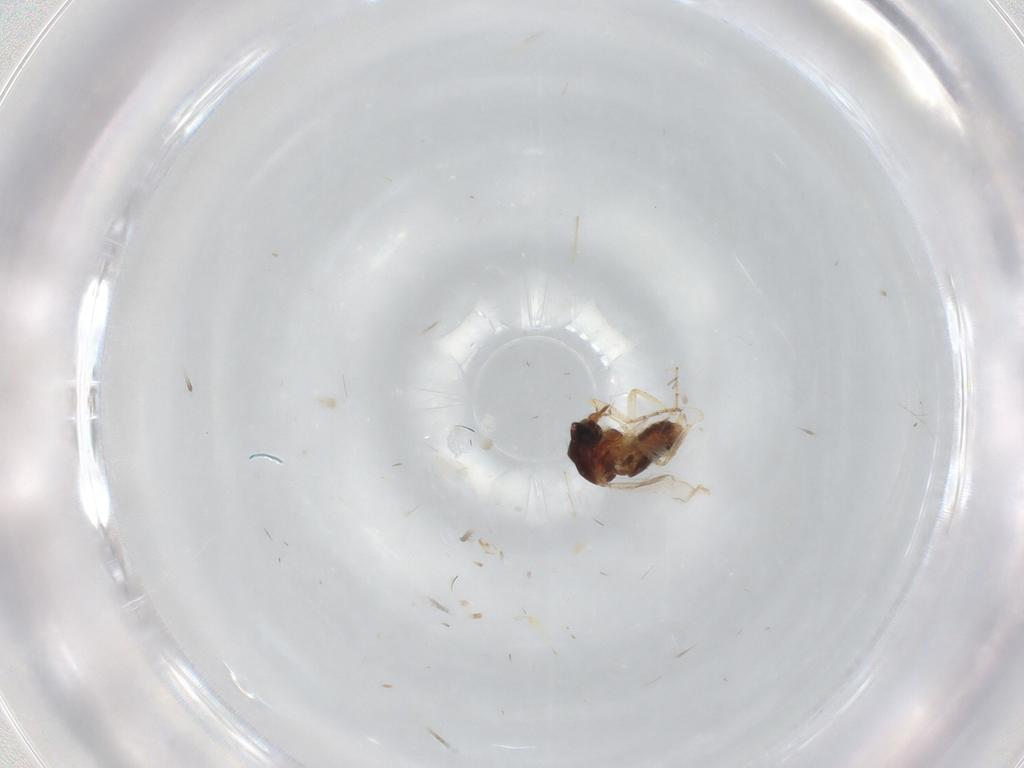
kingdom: Animalia
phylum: Arthropoda
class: Insecta
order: Diptera
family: Ceratopogonidae
